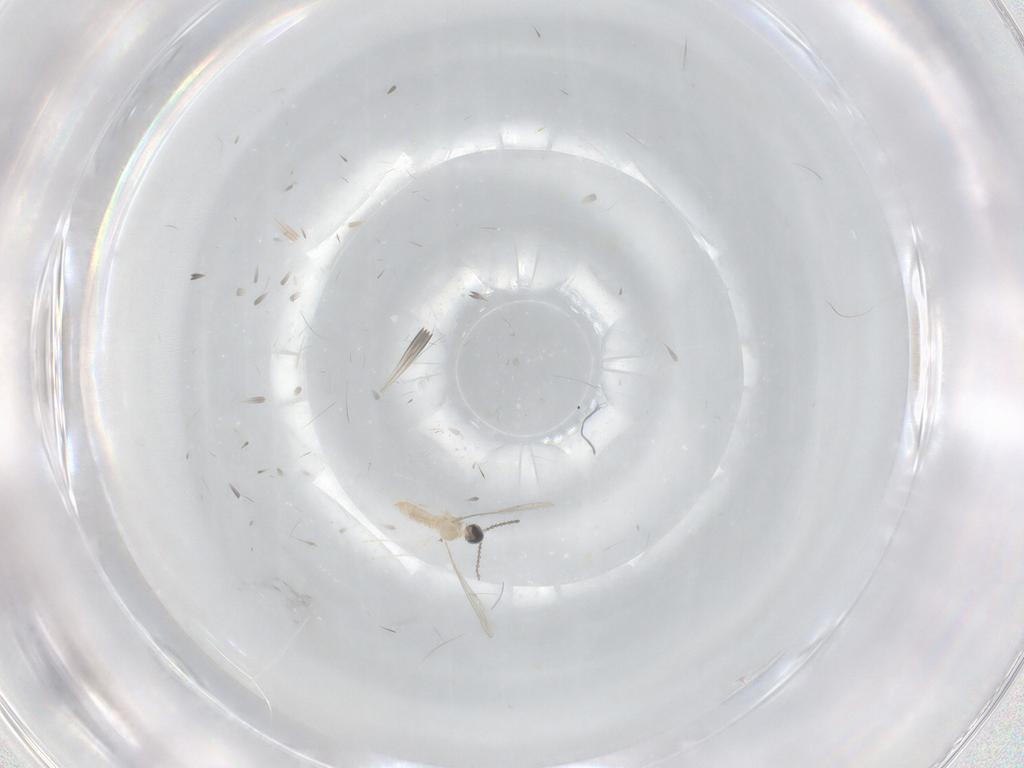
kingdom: Animalia
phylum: Arthropoda
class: Insecta
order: Diptera
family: Cecidomyiidae
